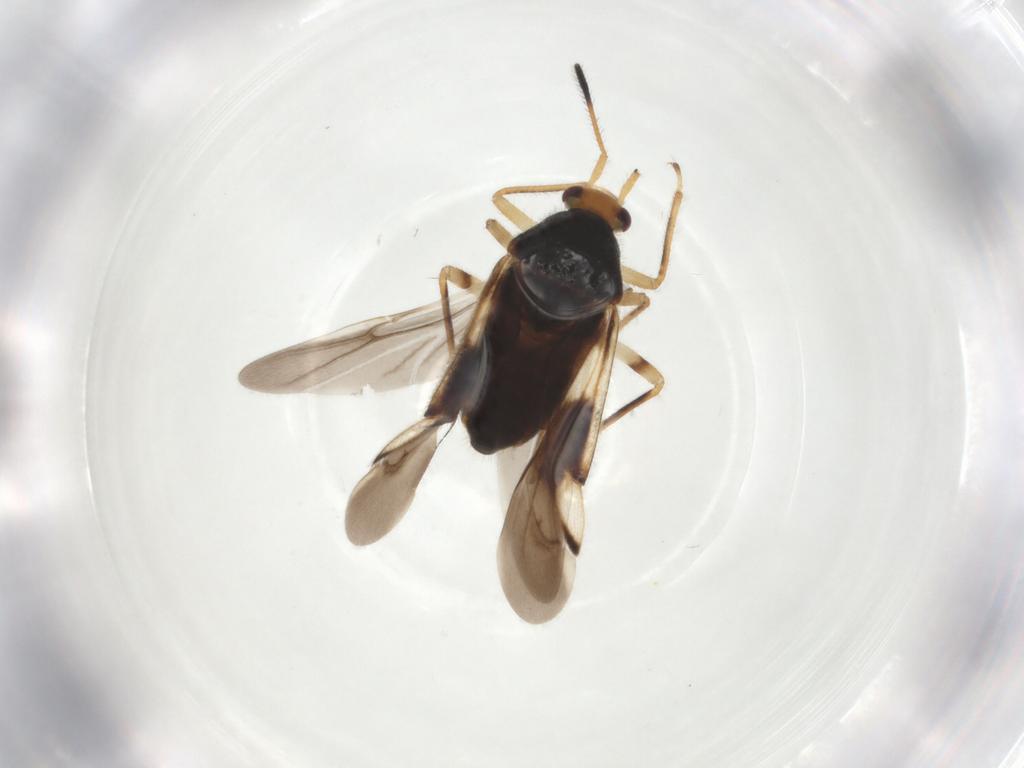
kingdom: Animalia
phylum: Arthropoda
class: Insecta
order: Hemiptera
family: Miridae
